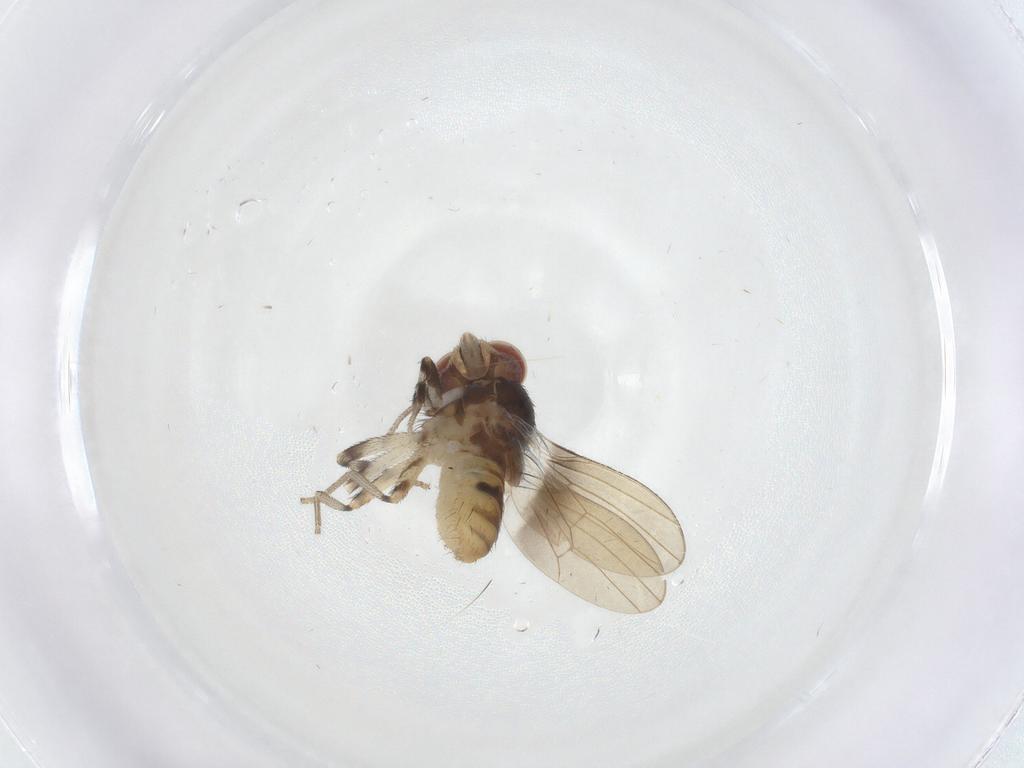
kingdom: Animalia
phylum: Arthropoda
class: Insecta
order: Diptera
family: Lauxaniidae
